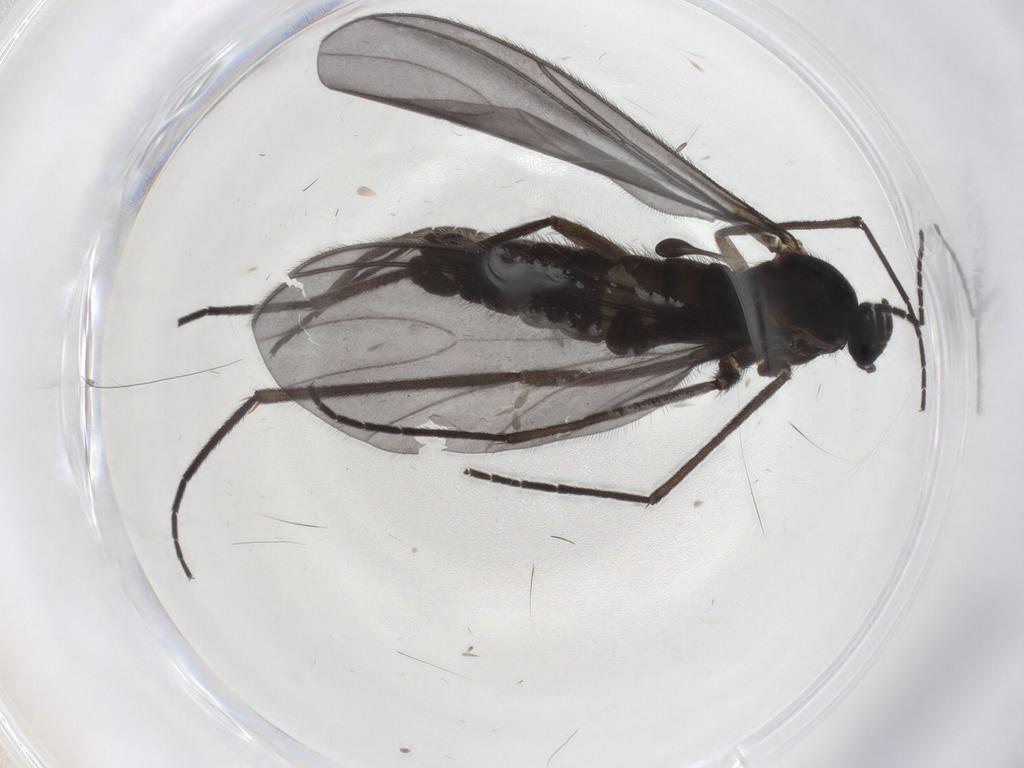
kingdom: Animalia
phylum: Arthropoda
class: Insecta
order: Diptera
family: Sciaridae
